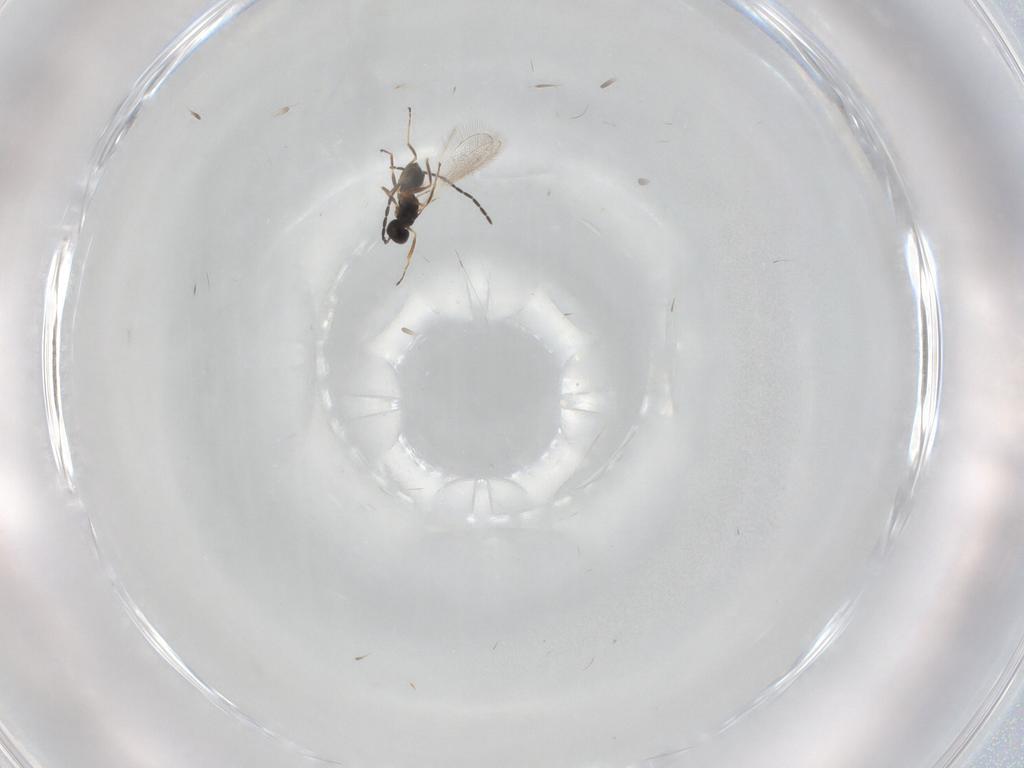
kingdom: Animalia
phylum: Arthropoda
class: Insecta
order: Hymenoptera
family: Mymaridae
